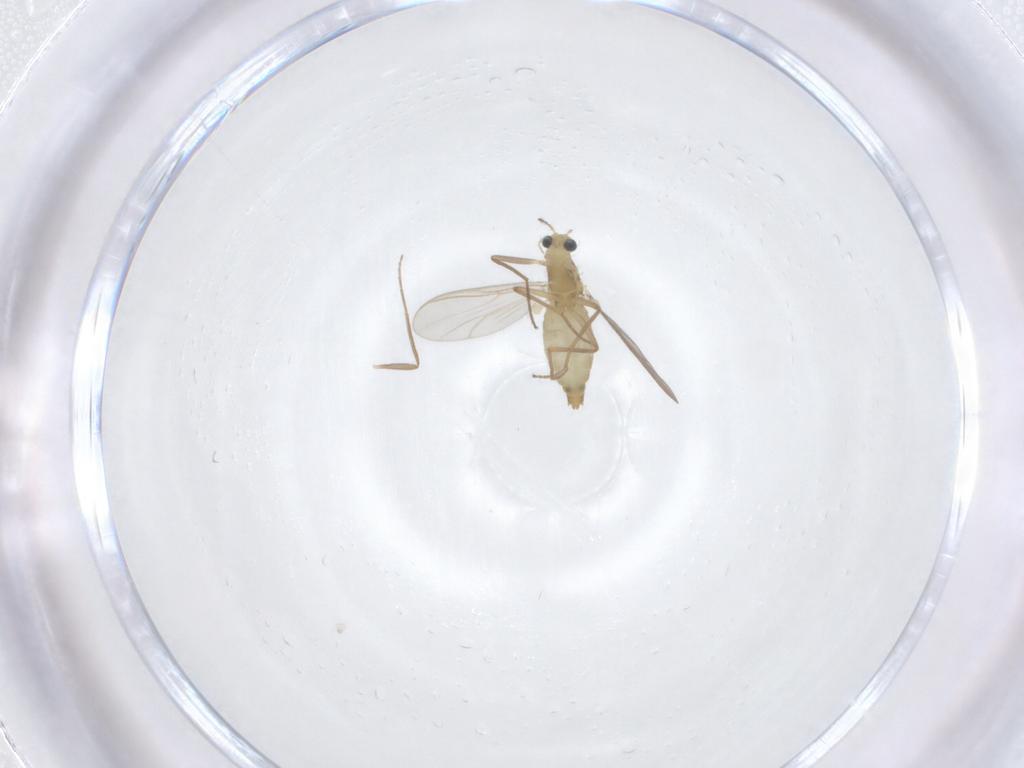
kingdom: Animalia
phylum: Arthropoda
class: Insecta
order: Diptera
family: Chironomidae
